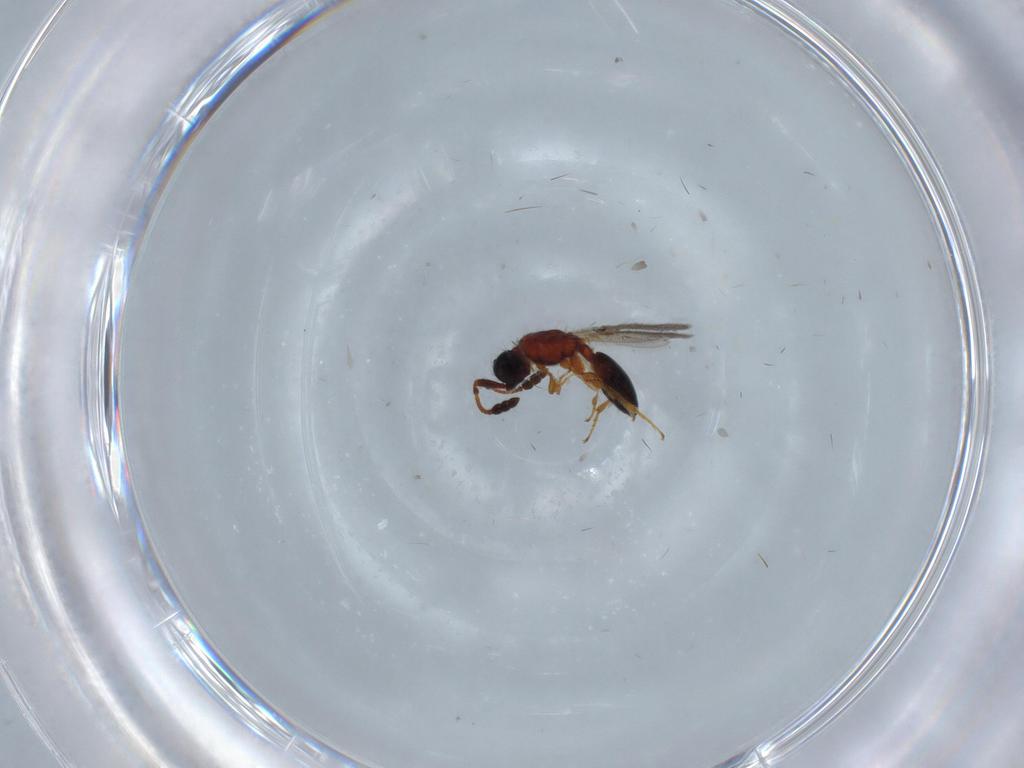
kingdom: Animalia
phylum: Arthropoda
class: Insecta
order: Hymenoptera
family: Diapriidae
